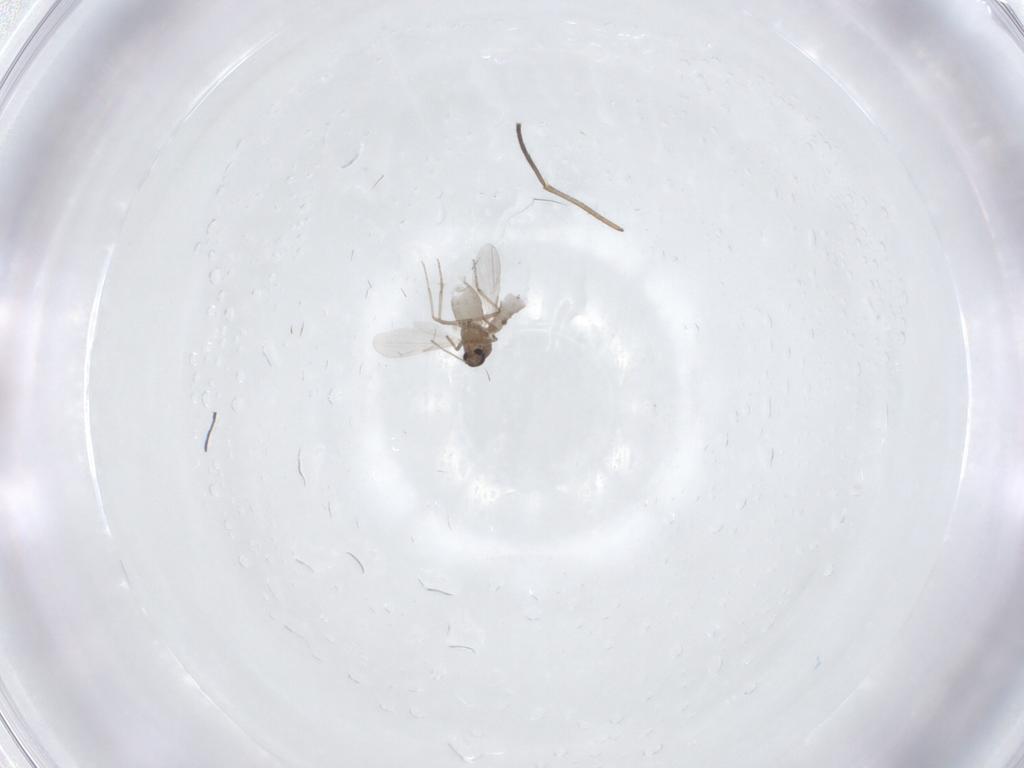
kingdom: Animalia
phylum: Arthropoda
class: Insecta
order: Diptera
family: Sciaridae
